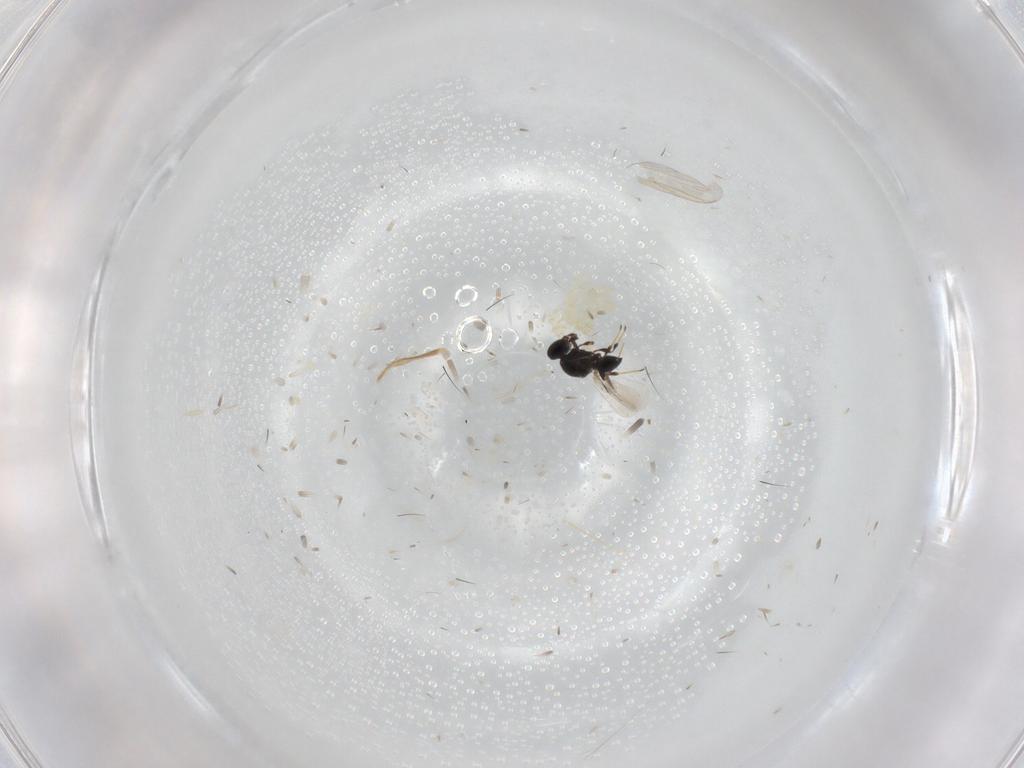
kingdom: Animalia
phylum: Arthropoda
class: Insecta
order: Hymenoptera
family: Platygastridae
